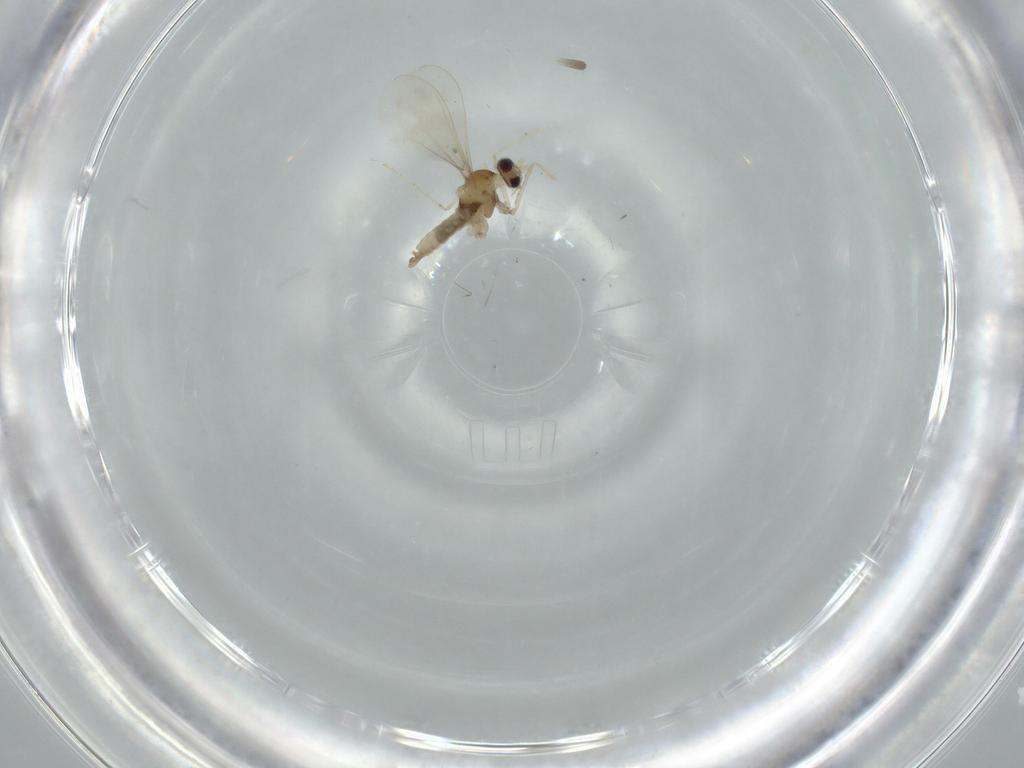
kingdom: Animalia
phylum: Arthropoda
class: Insecta
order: Diptera
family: Cecidomyiidae
